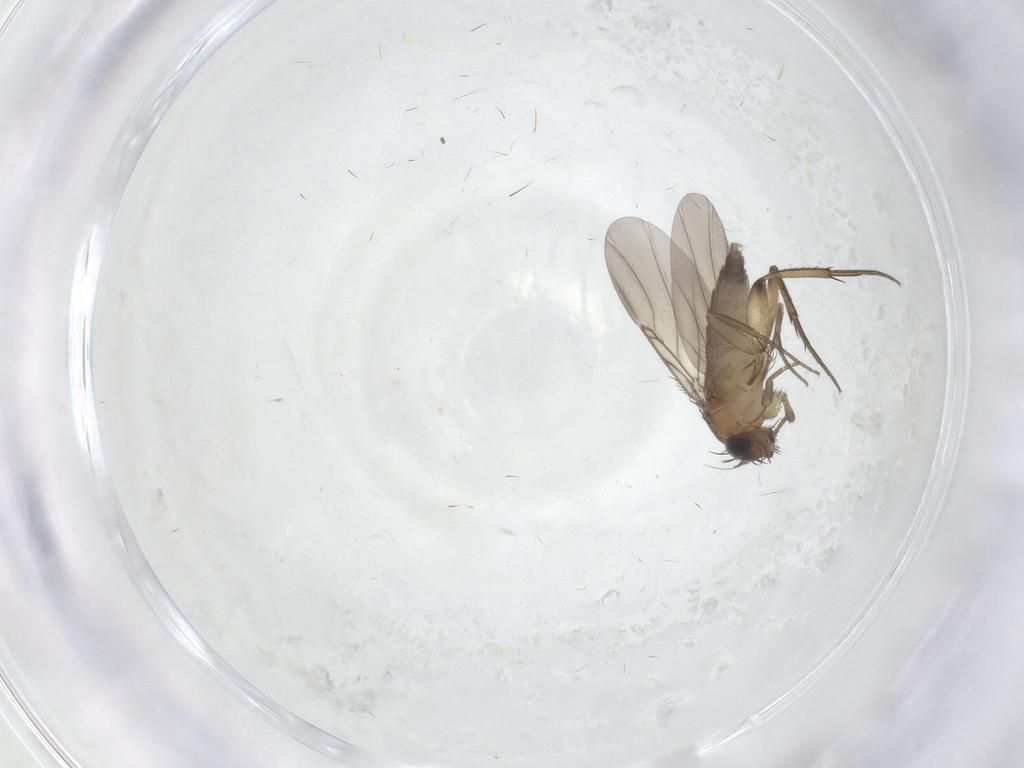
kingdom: Animalia
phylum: Arthropoda
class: Insecta
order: Diptera
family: Phoridae
